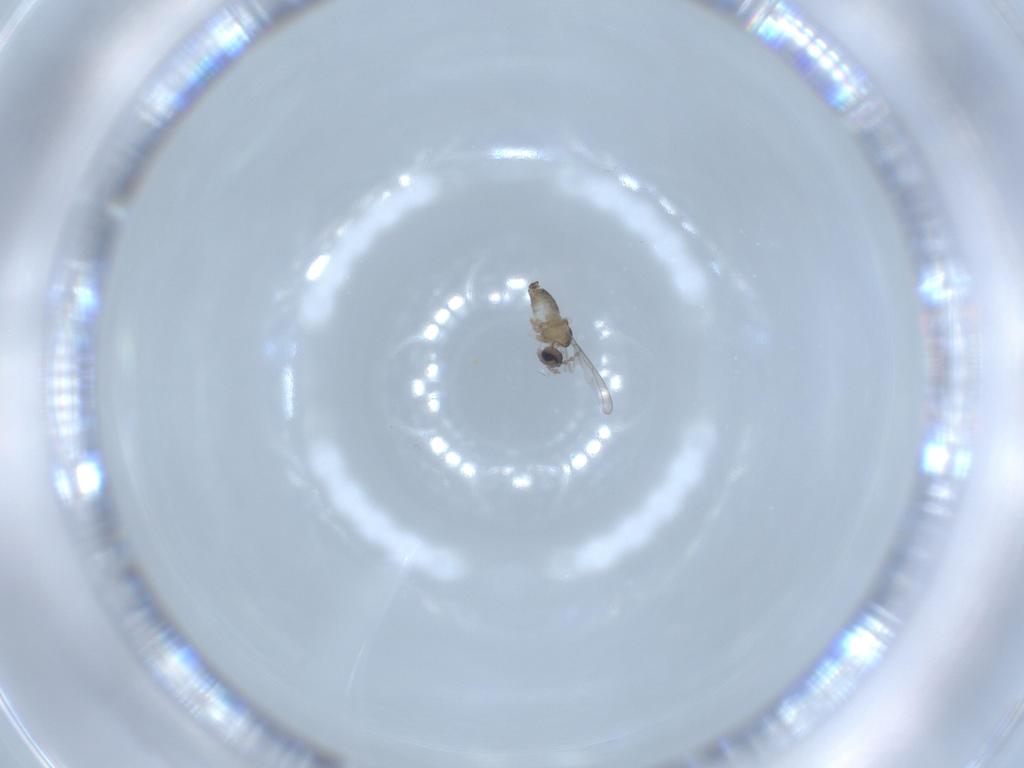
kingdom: Animalia
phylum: Arthropoda
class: Insecta
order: Diptera
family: Cecidomyiidae
